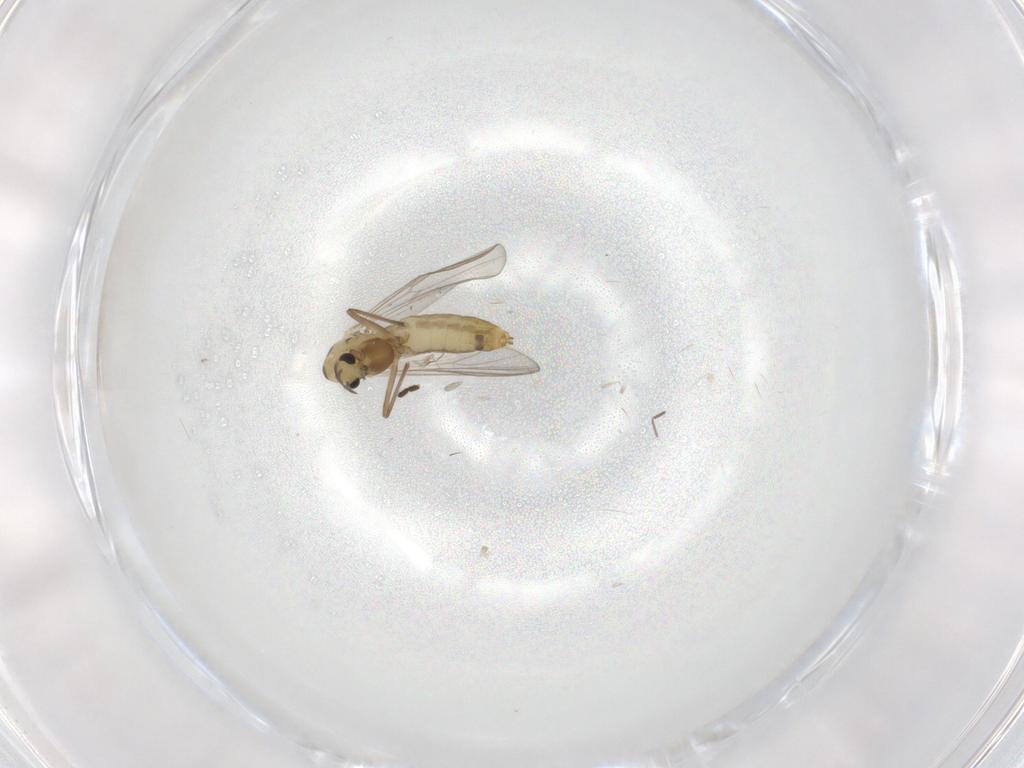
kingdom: Animalia
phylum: Arthropoda
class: Insecta
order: Diptera
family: Chironomidae
